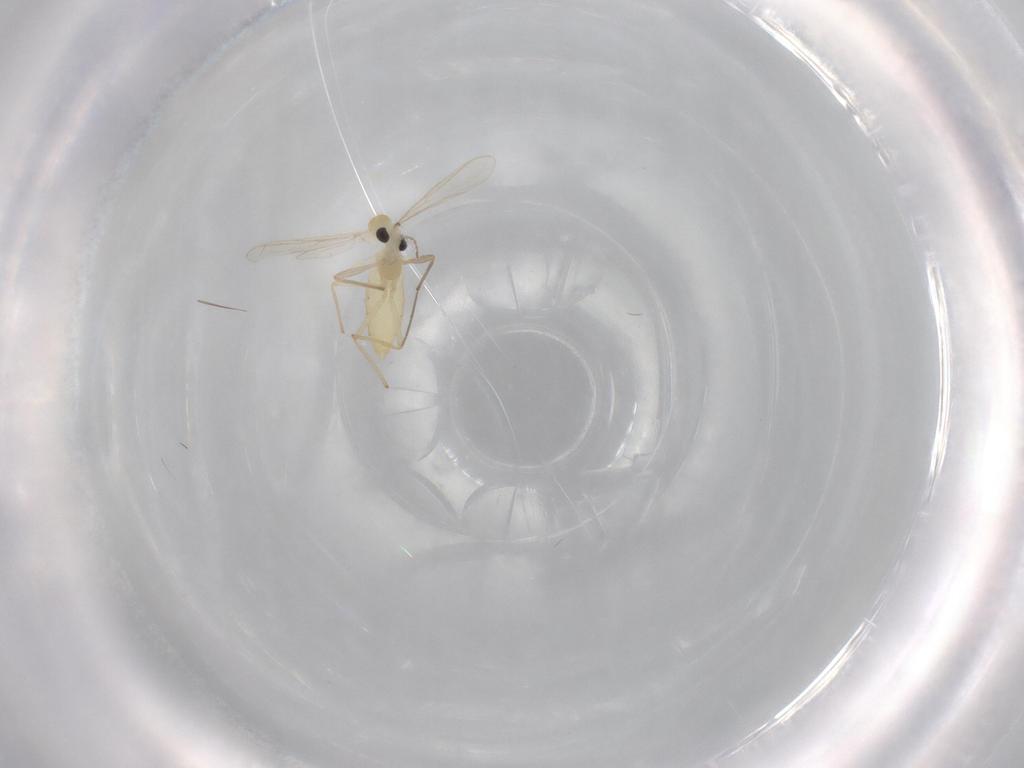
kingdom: Animalia
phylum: Arthropoda
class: Insecta
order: Diptera
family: Chironomidae
